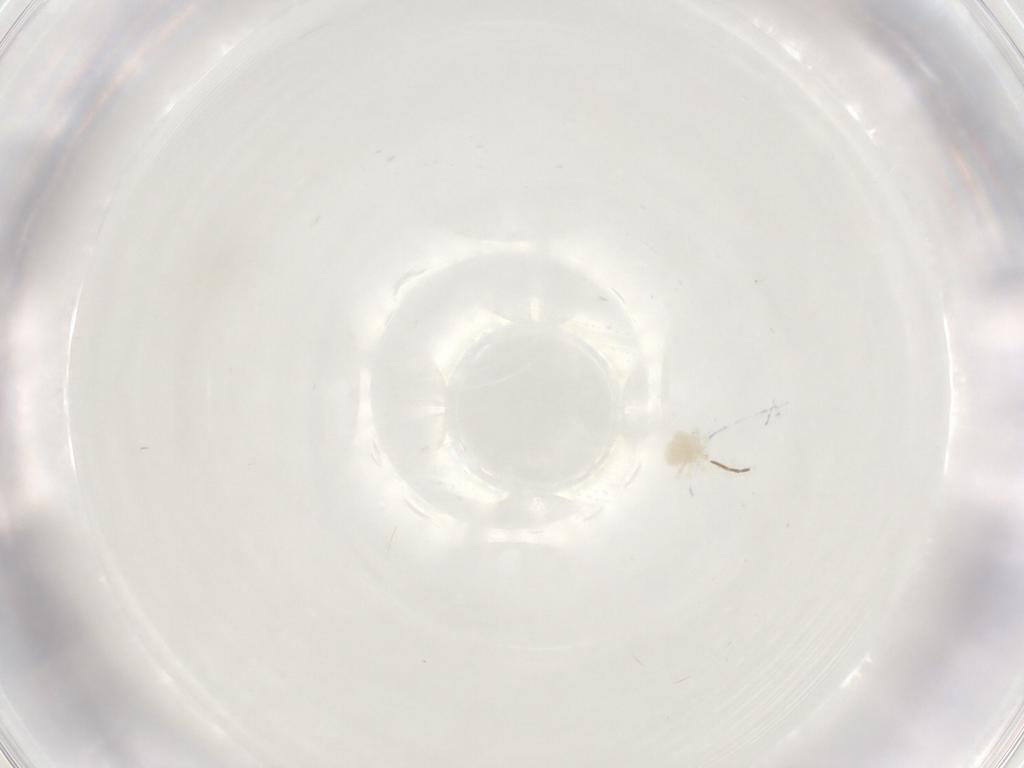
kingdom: Animalia
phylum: Arthropoda
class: Arachnida
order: Trombidiformes
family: Anystidae
